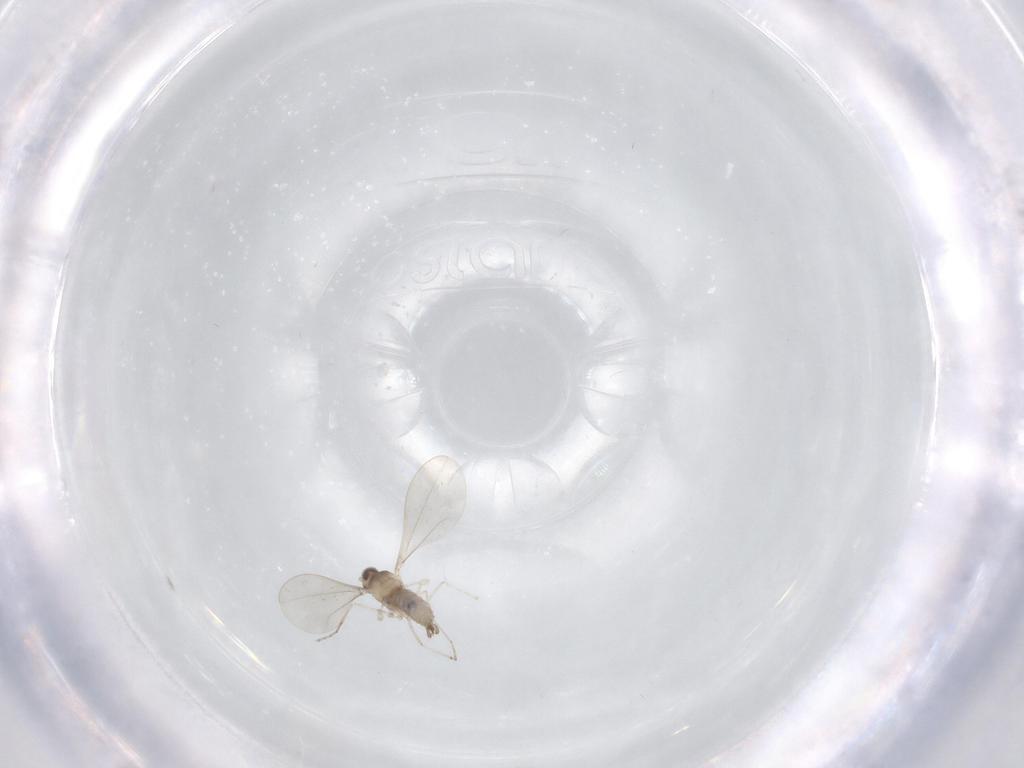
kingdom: Animalia
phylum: Arthropoda
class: Insecta
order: Diptera
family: Cecidomyiidae
